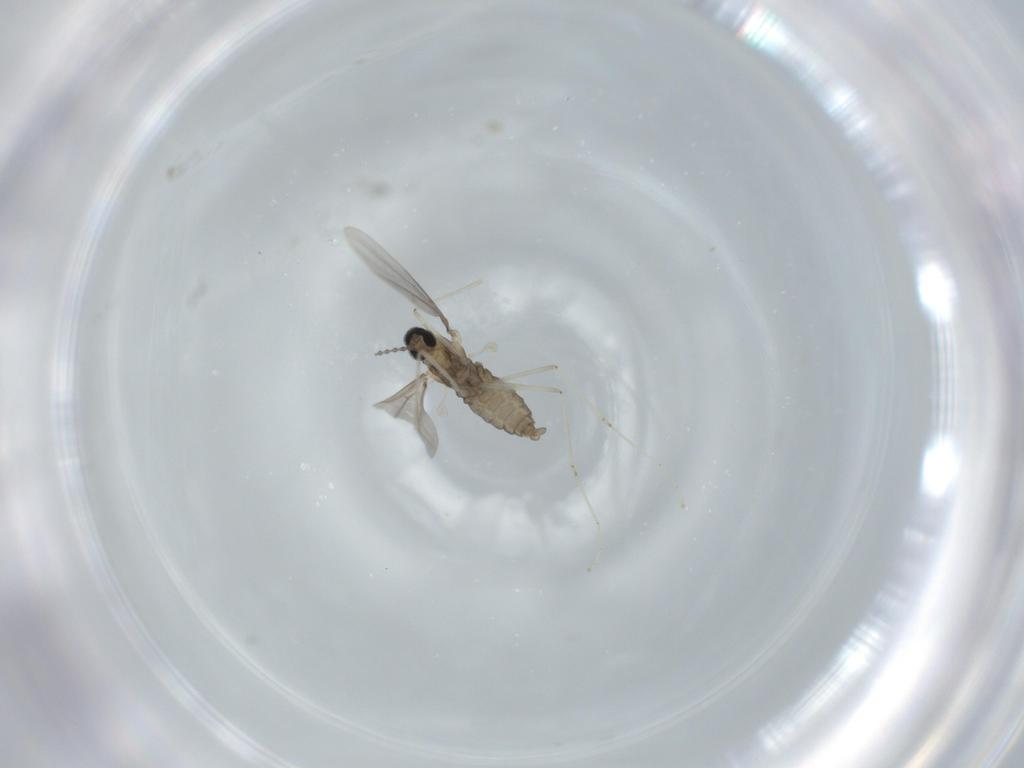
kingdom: Animalia
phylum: Arthropoda
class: Insecta
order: Diptera
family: Cecidomyiidae
